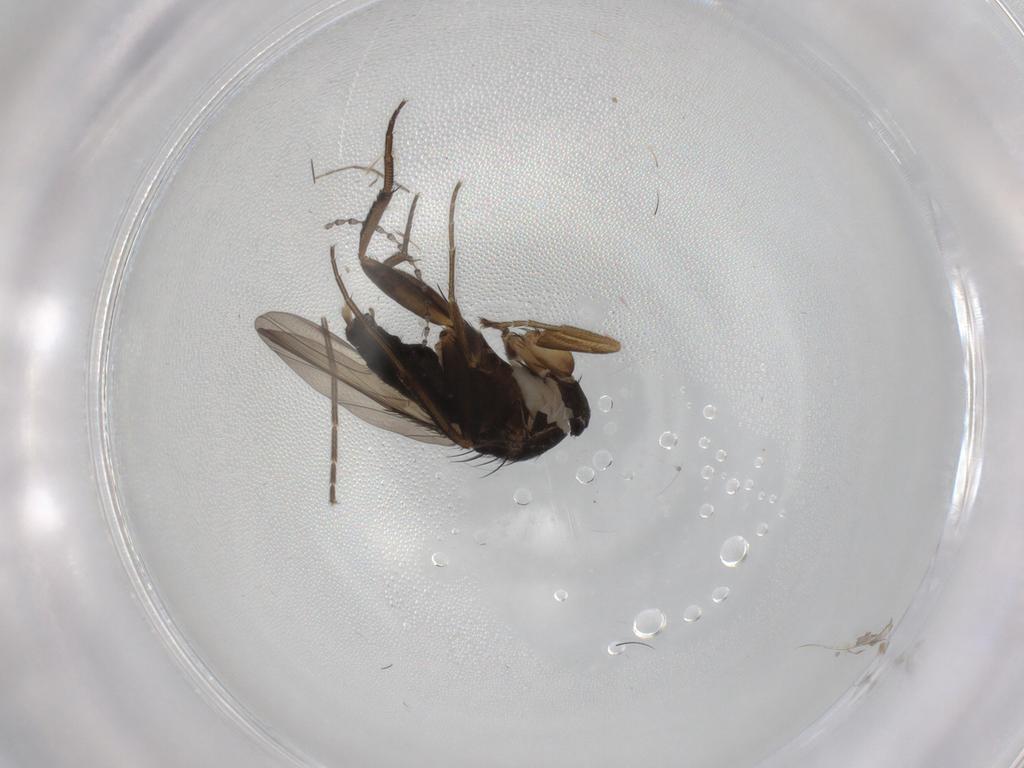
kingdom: Animalia
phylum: Arthropoda
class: Insecta
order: Diptera
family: Phoridae
